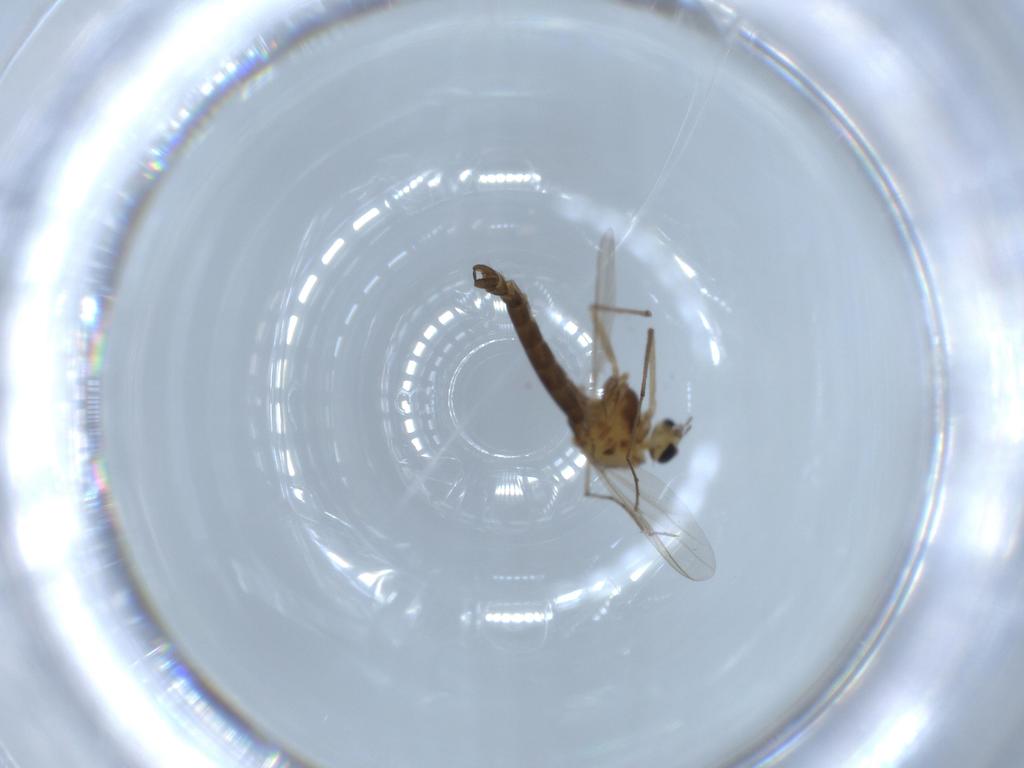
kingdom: Animalia
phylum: Arthropoda
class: Insecta
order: Diptera
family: Chironomidae
